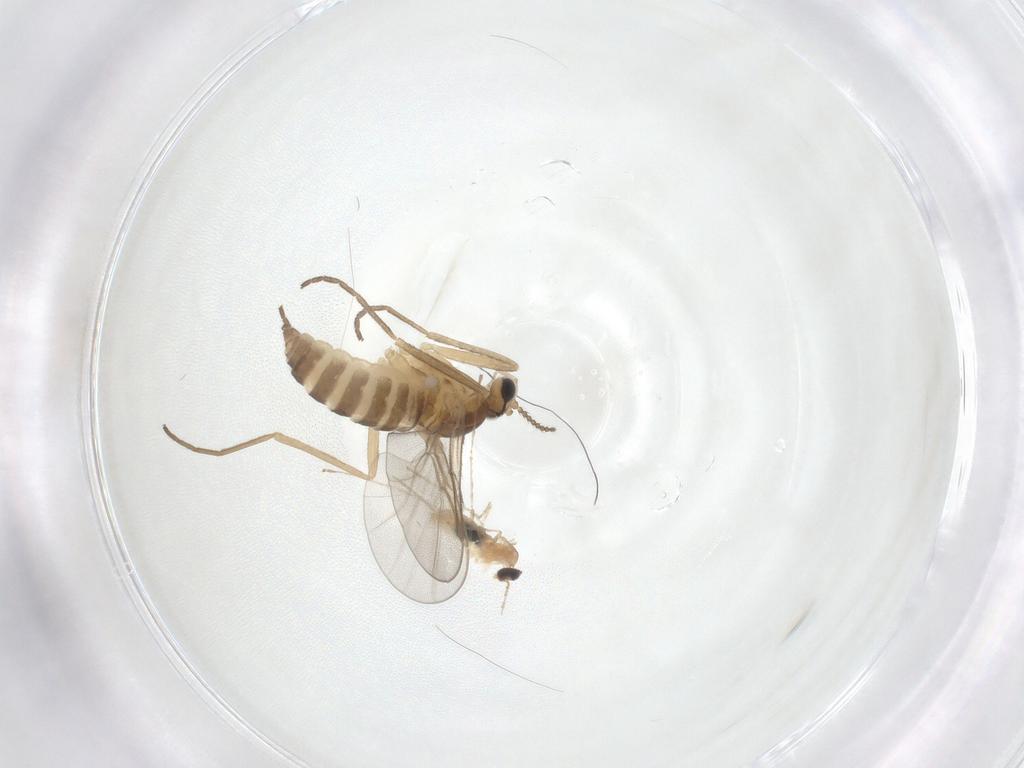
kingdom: Animalia
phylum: Arthropoda
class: Insecta
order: Diptera
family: Cecidomyiidae
